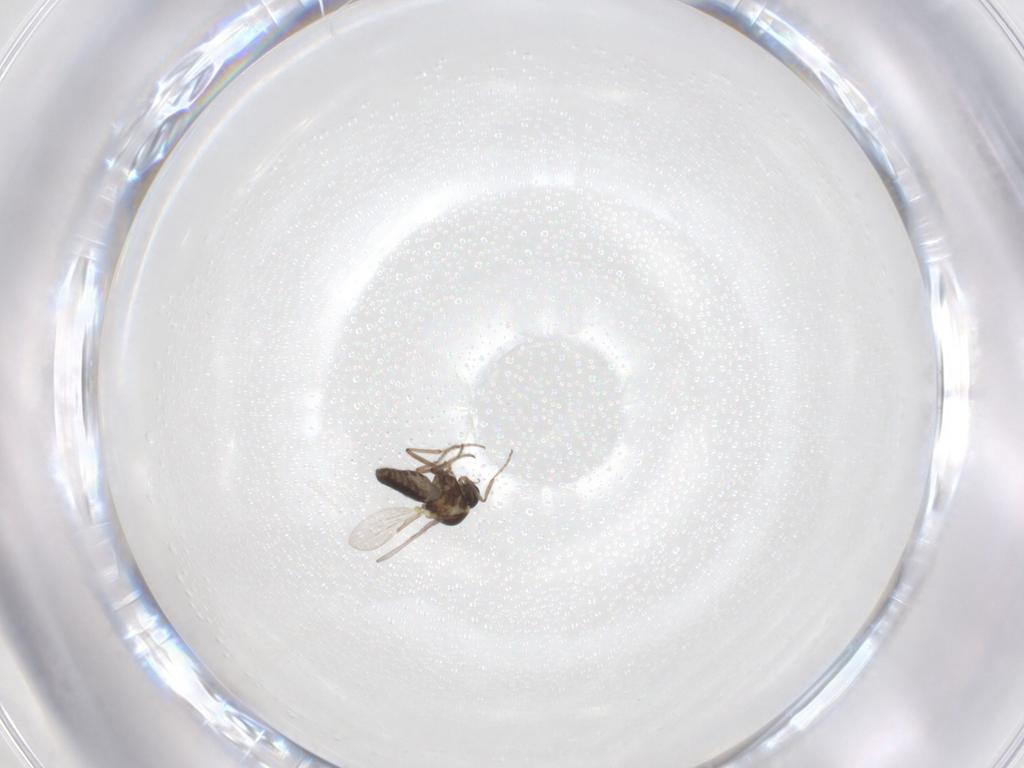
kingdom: Animalia
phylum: Arthropoda
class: Insecta
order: Diptera
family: Ceratopogonidae
